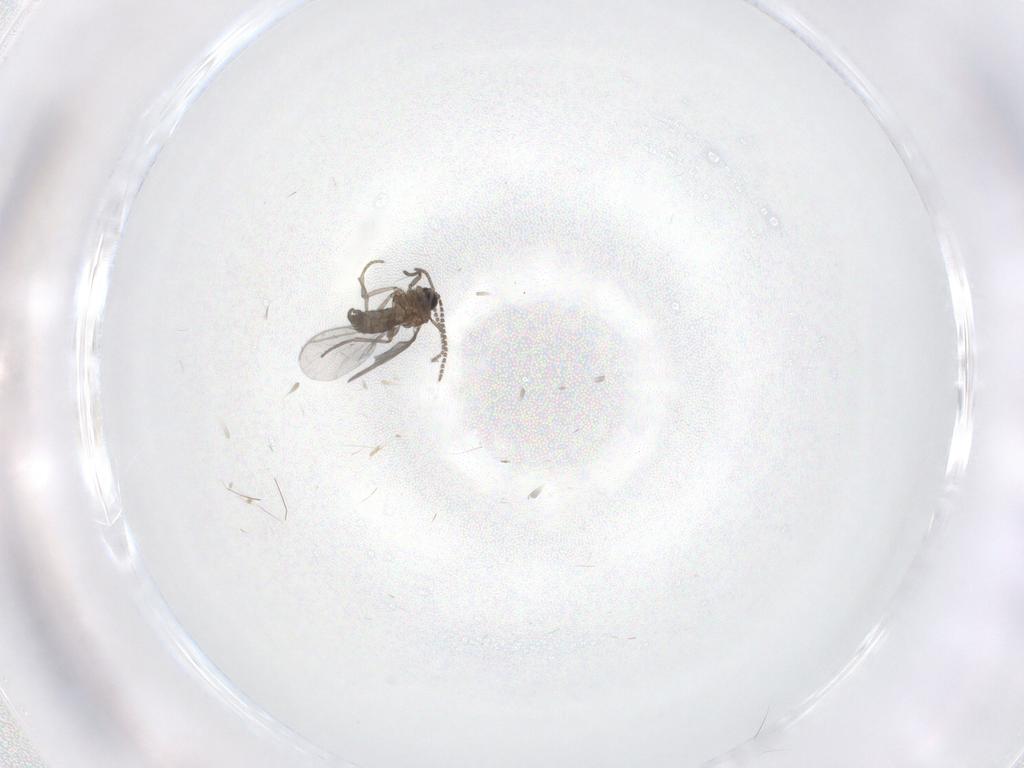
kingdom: Animalia
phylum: Arthropoda
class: Insecta
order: Diptera
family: Sciaridae
